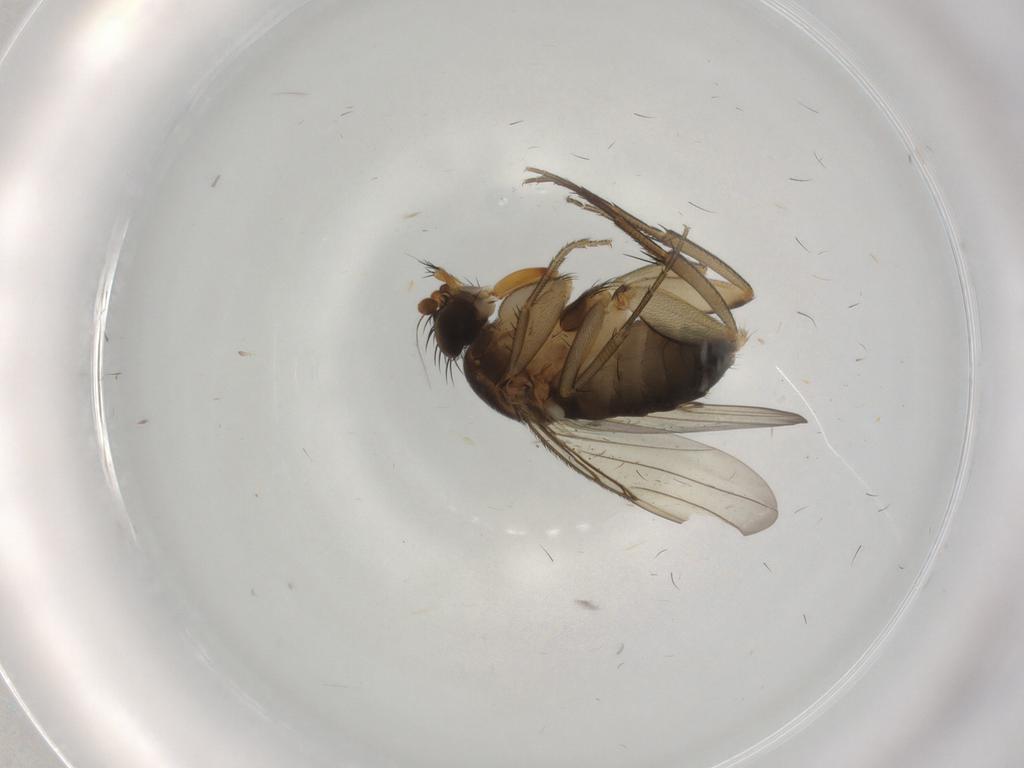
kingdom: Animalia
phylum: Arthropoda
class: Insecta
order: Diptera
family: Phoridae
